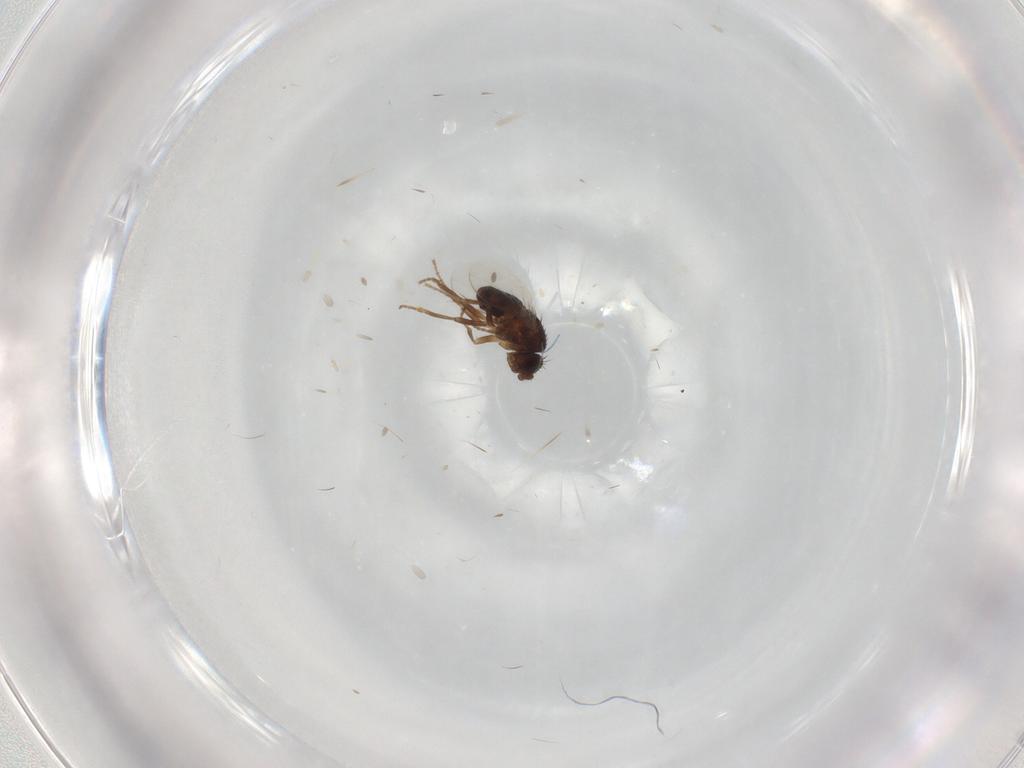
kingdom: Animalia
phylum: Arthropoda
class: Insecta
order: Diptera
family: Sphaeroceridae
